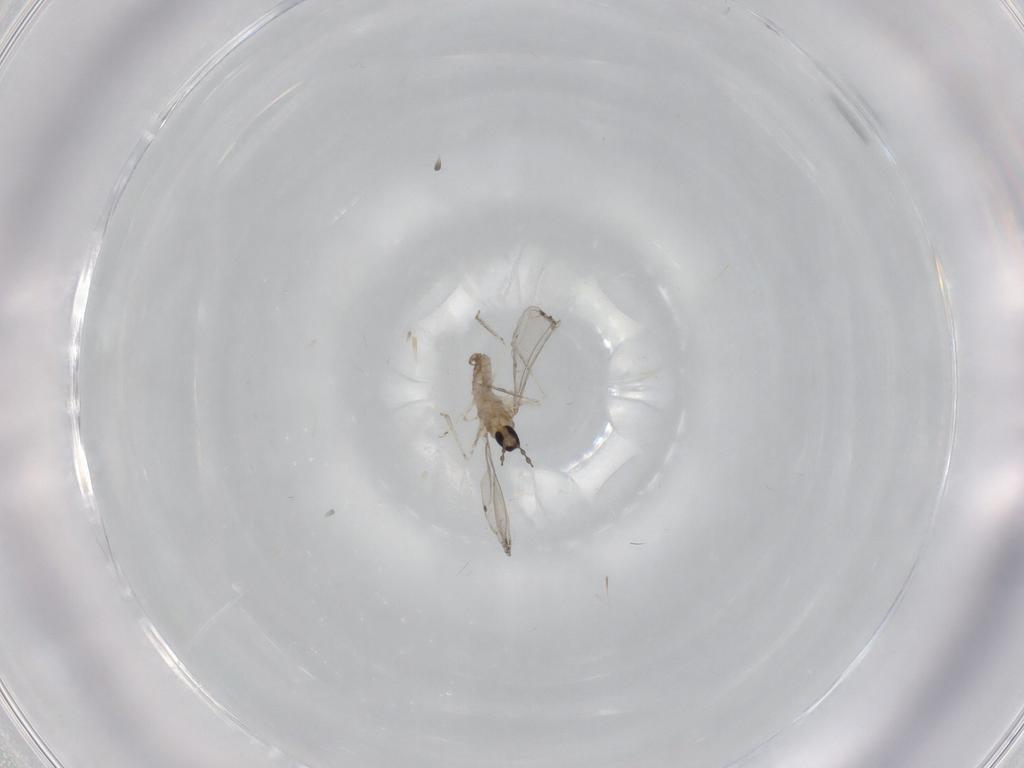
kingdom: Animalia
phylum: Arthropoda
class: Insecta
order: Diptera
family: Cecidomyiidae
